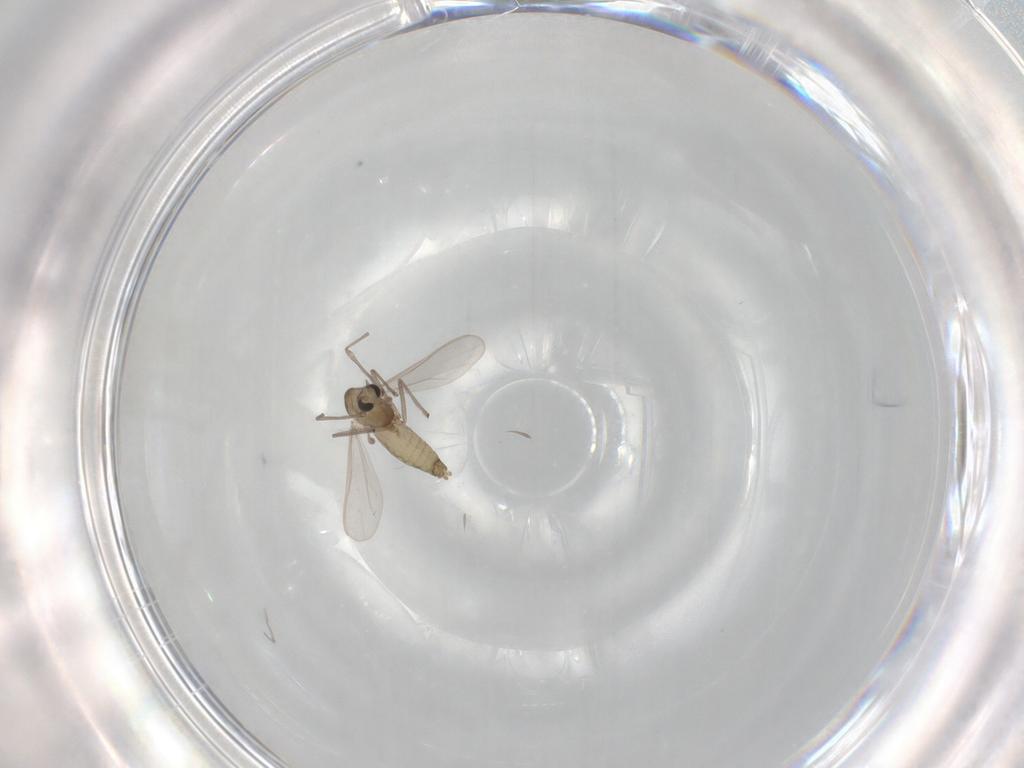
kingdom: Animalia
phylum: Arthropoda
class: Insecta
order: Diptera
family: Chironomidae
